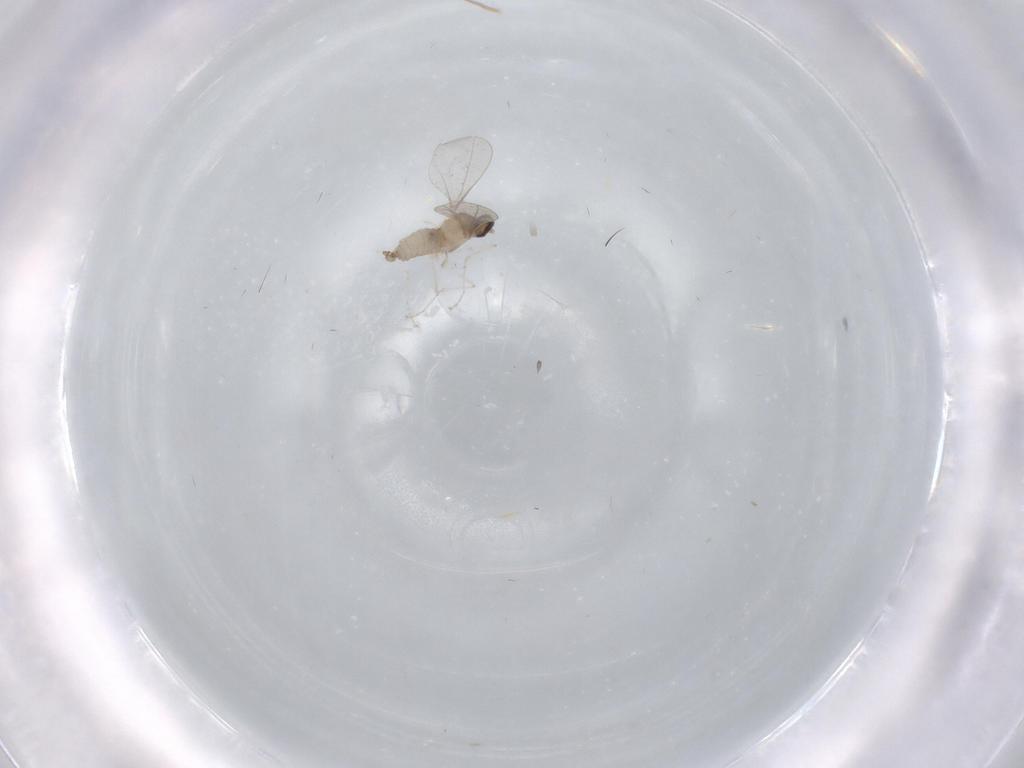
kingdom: Animalia
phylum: Arthropoda
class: Insecta
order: Diptera
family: Cecidomyiidae
